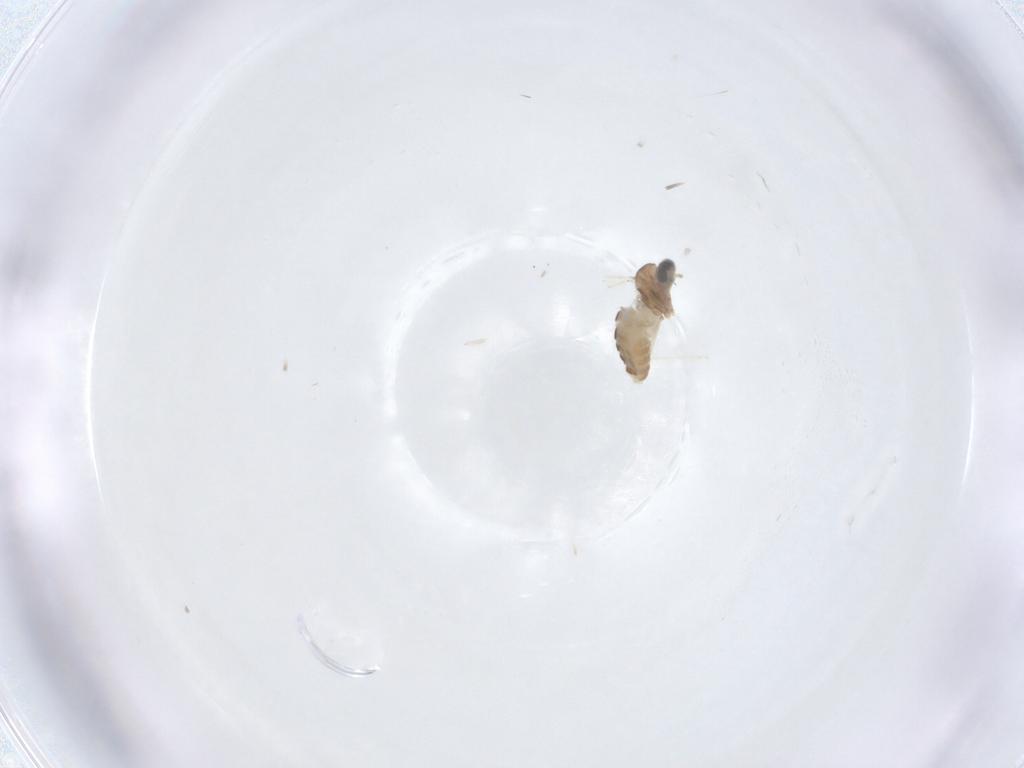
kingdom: Animalia
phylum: Arthropoda
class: Insecta
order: Diptera
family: Cecidomyiidae
